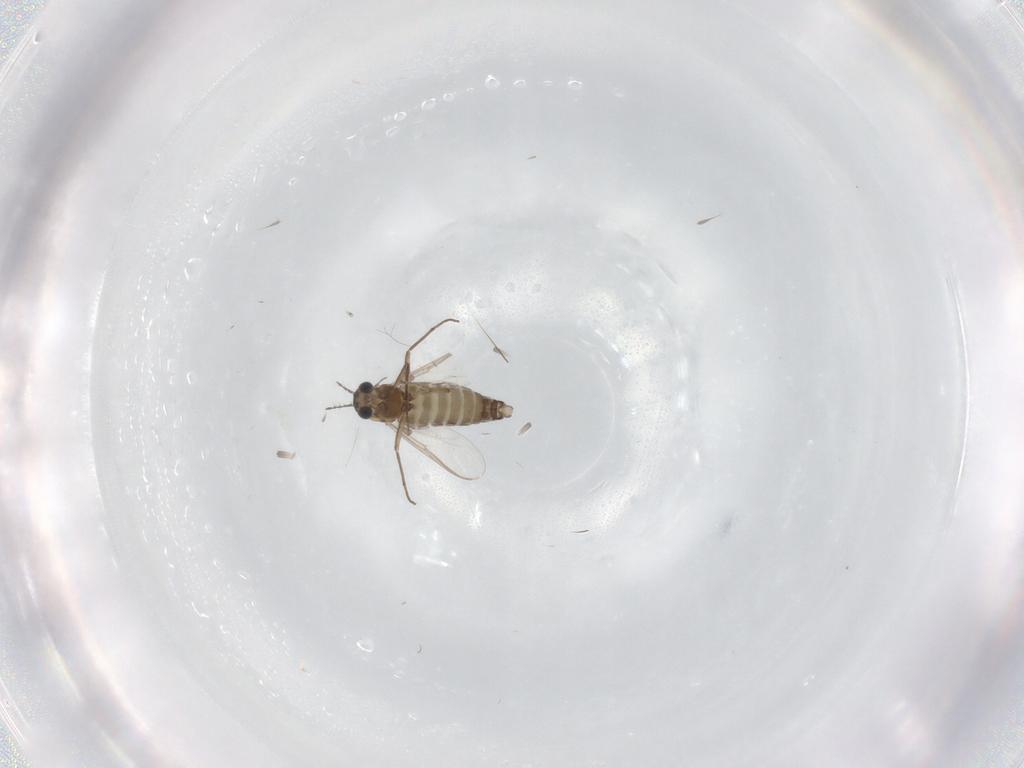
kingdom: Animalia
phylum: Arthropoda
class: Insecta
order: Diptera
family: Chironomidae
